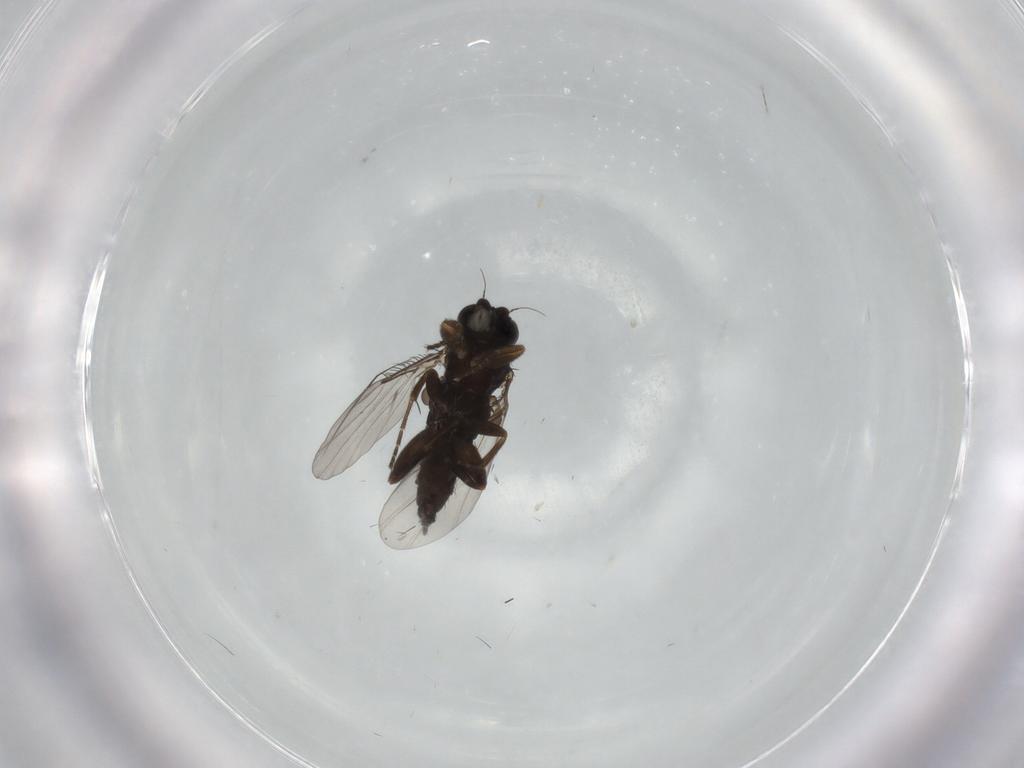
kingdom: Animalia
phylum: Arthropoda
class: Insecta
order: Diptera
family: Phoridae
